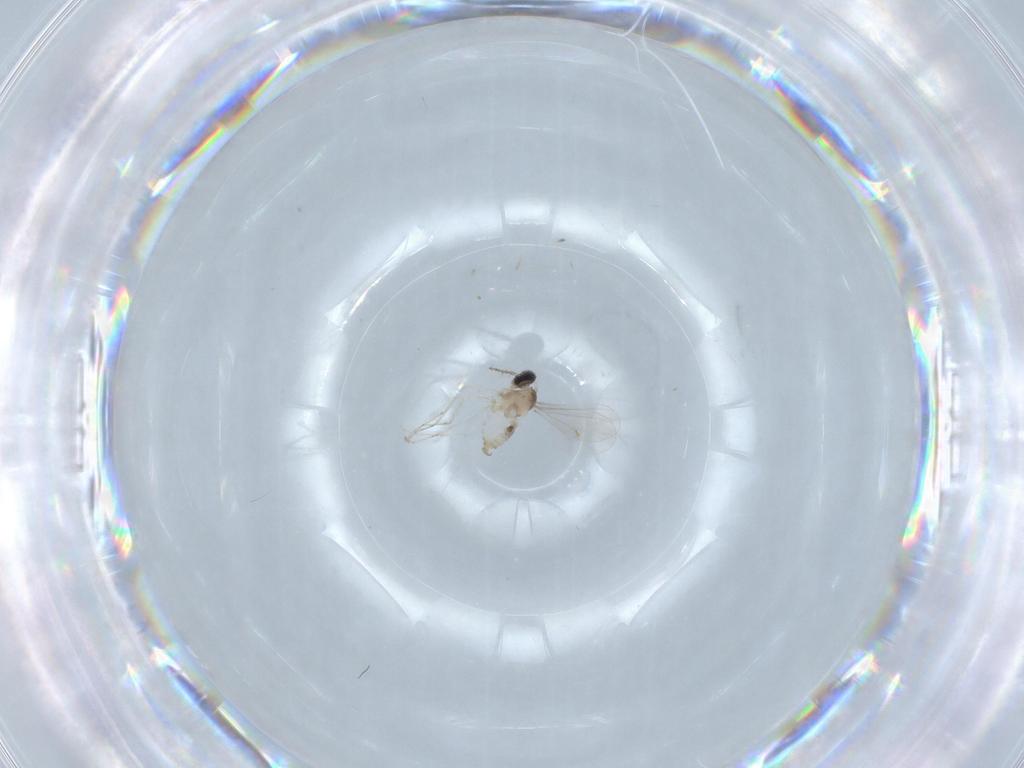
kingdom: Animalia
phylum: Arthropoda
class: Insecta
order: Diptera
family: Cecidomyiidae
